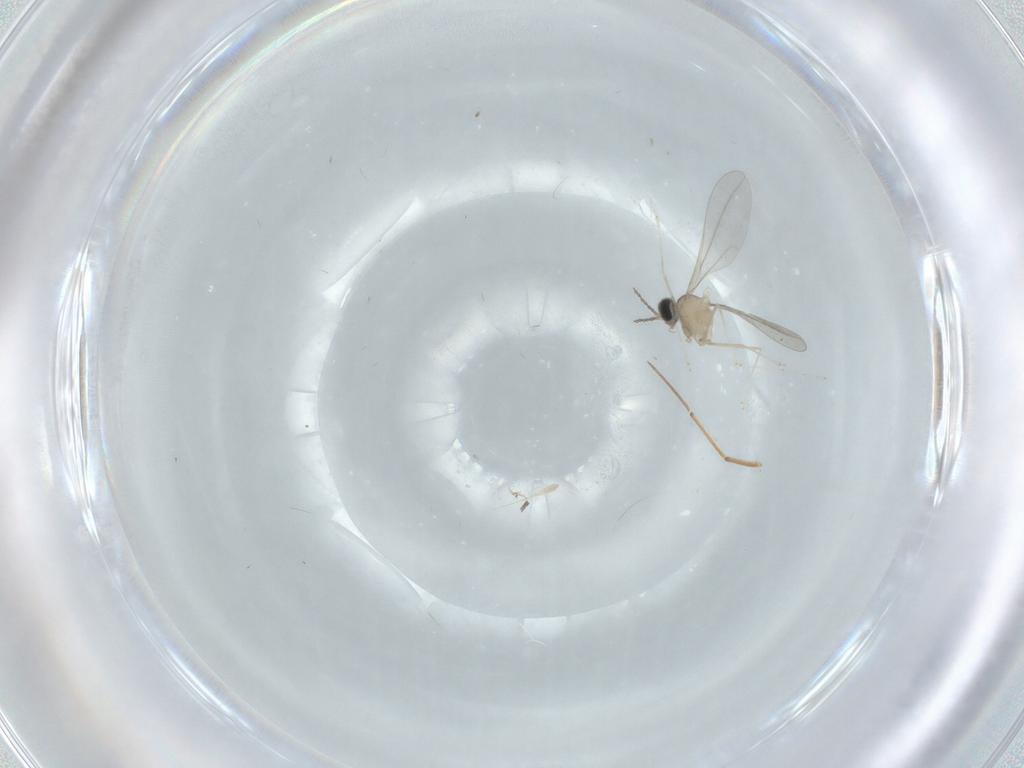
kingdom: Animalia
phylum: Arthropoda
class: Insecta
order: Diptera
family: Cecidomyiidae
